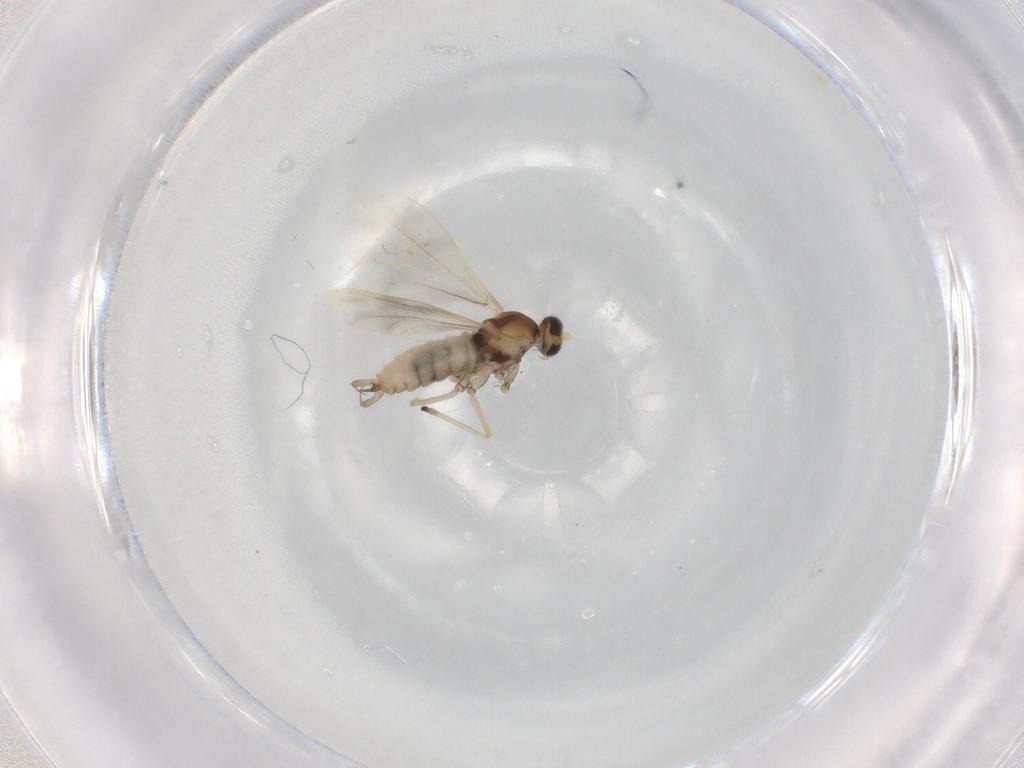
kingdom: Animalia
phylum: Arthropoda
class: Insecta
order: Diptera
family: Cecidomyiidae
